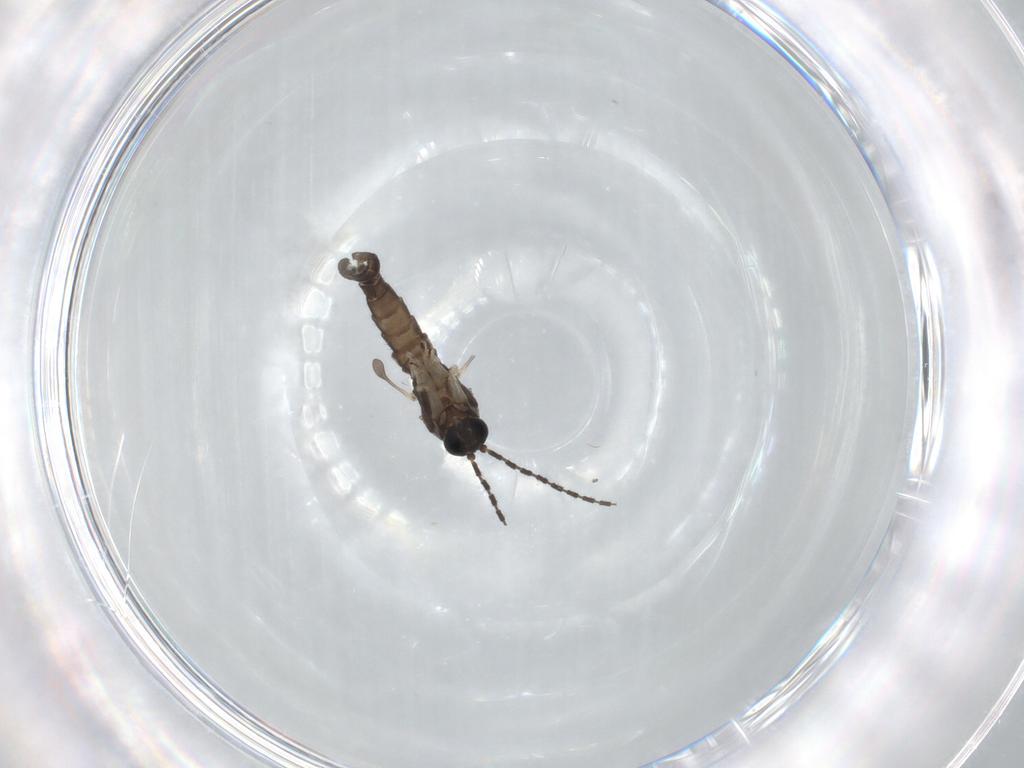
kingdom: Animalia
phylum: Arthropoda
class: Insecta
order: Diptera
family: Sciaridae
